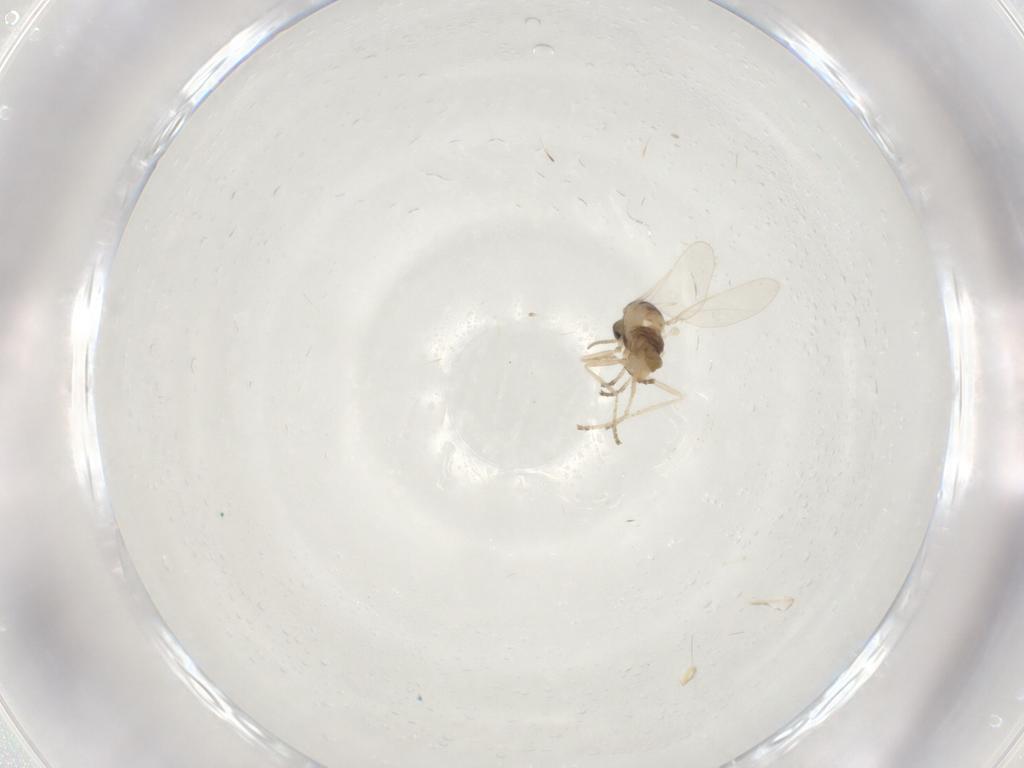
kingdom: Animalia
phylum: Arthropoda
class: Insecta
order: Diptera
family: Cecidomyiidae
